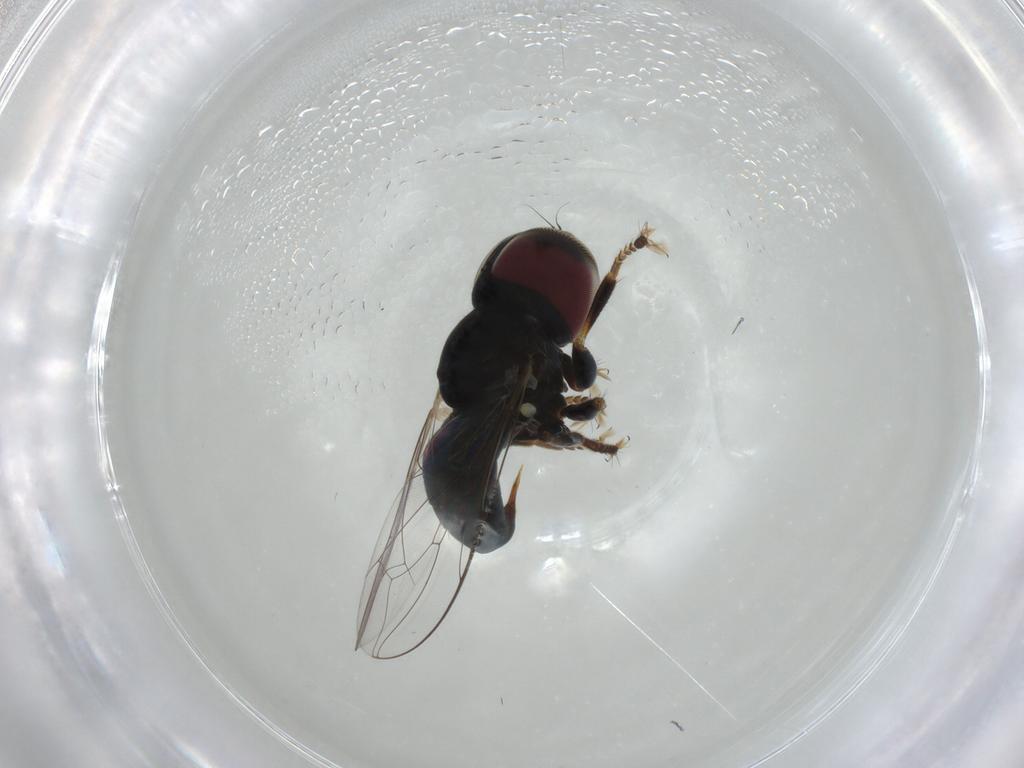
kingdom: Animalia
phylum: Arthropoda
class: Insecta
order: Diptera
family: Pipunculidae
